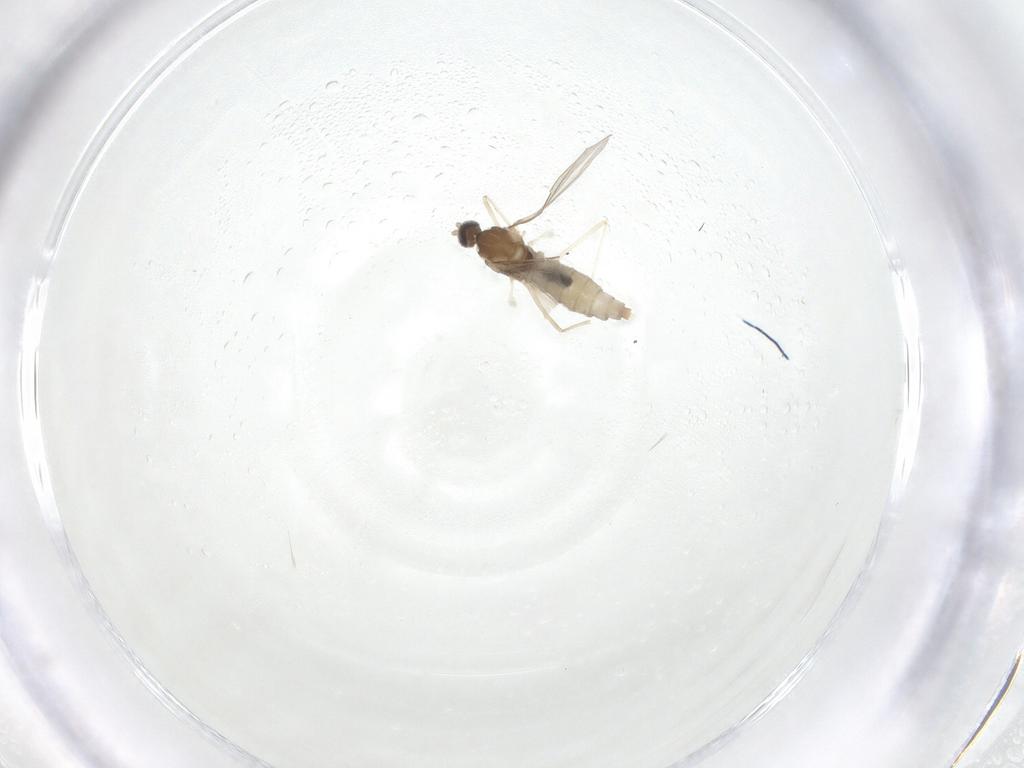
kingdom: Animalia
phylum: Arthropoda
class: Insecta
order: Diptera
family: Cecidomyiidae
